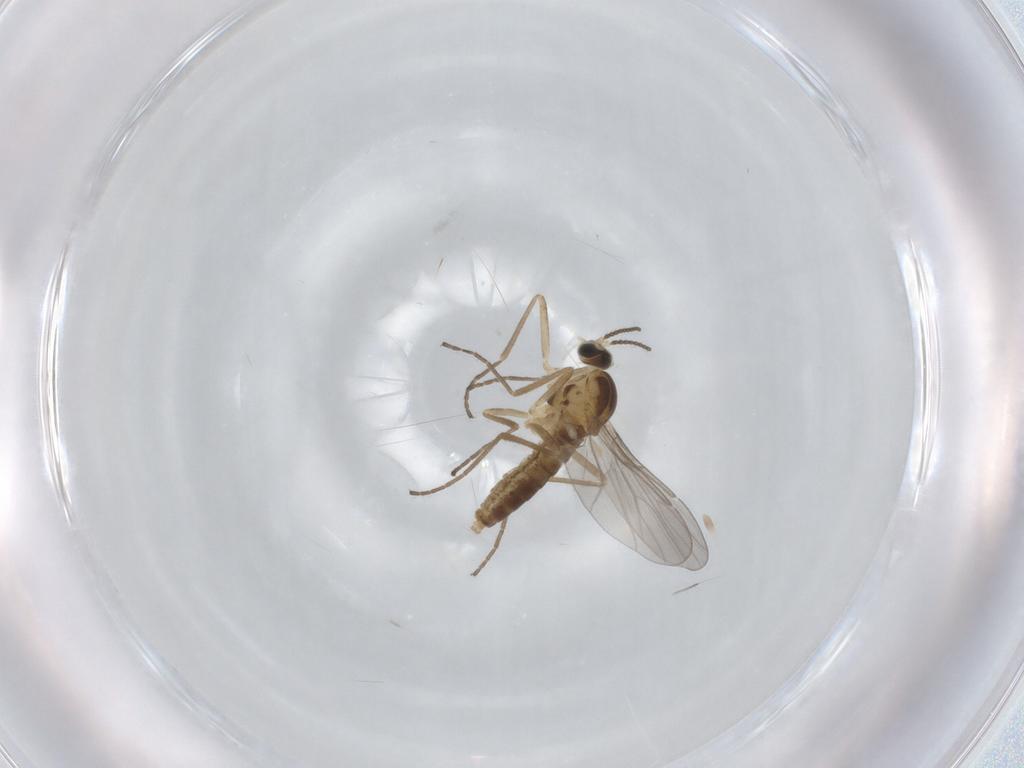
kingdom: Animalia
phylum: Arthropoda
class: Insecta
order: Diptera
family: Cecidomyiidae
